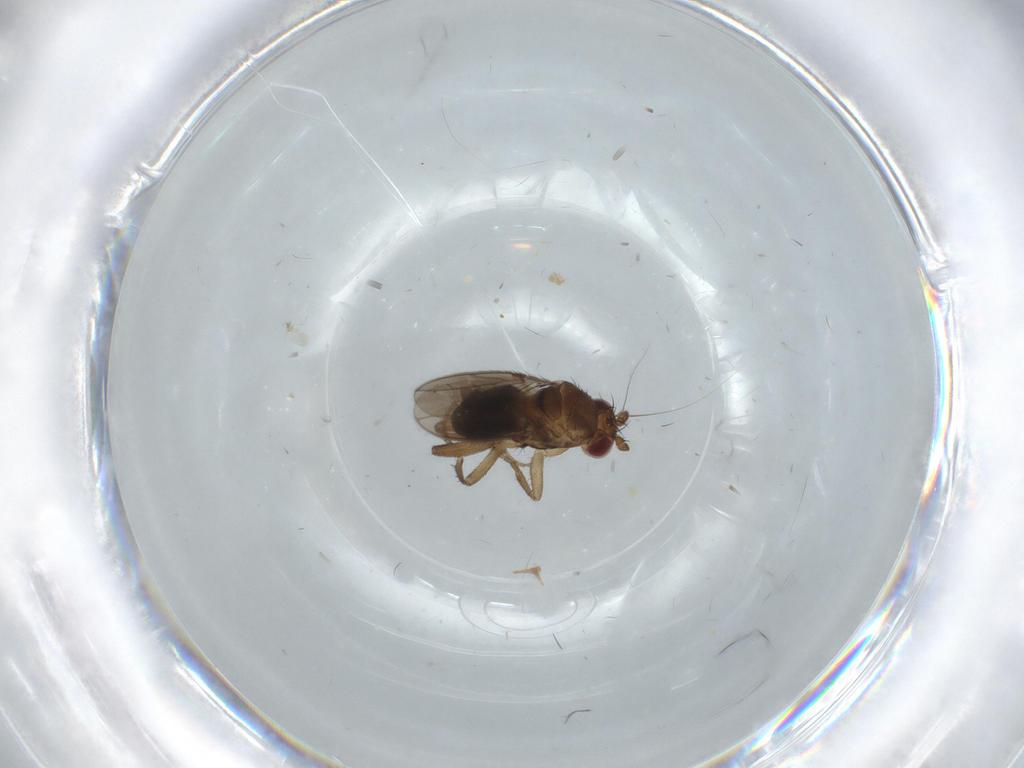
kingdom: Animalia
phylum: Arthropoda
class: Insecta
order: Diptera
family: Sphaeroceridae
